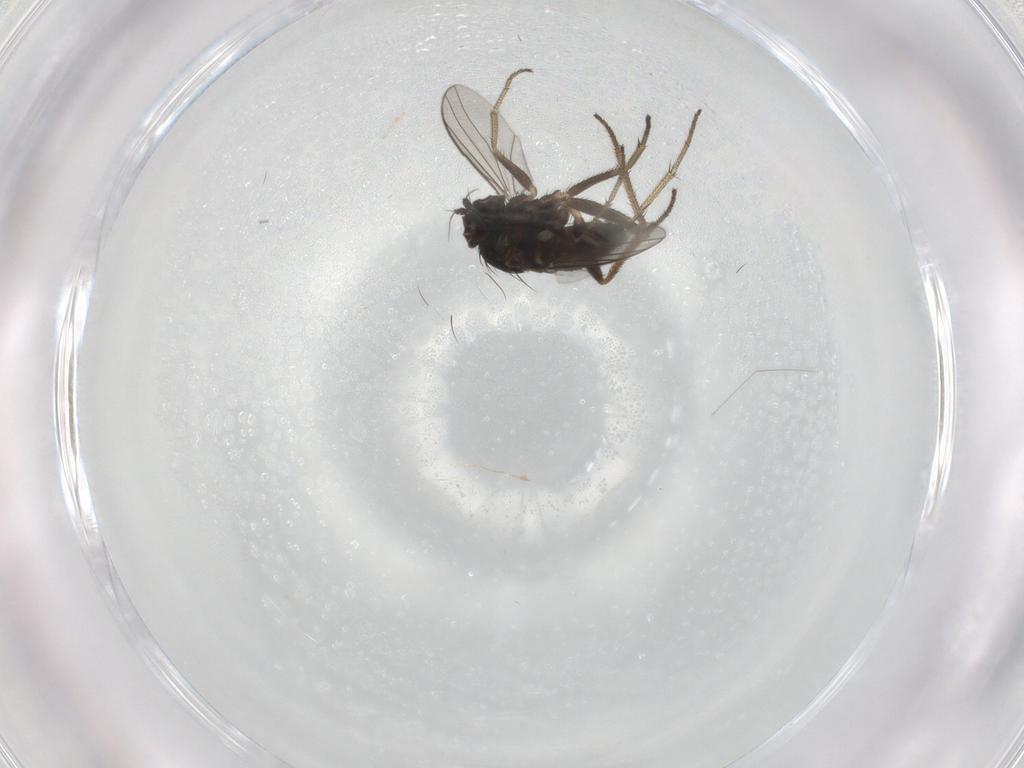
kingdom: Animalia
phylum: Arthropoda
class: Insecta
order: Diptera
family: Dolichopodidae
